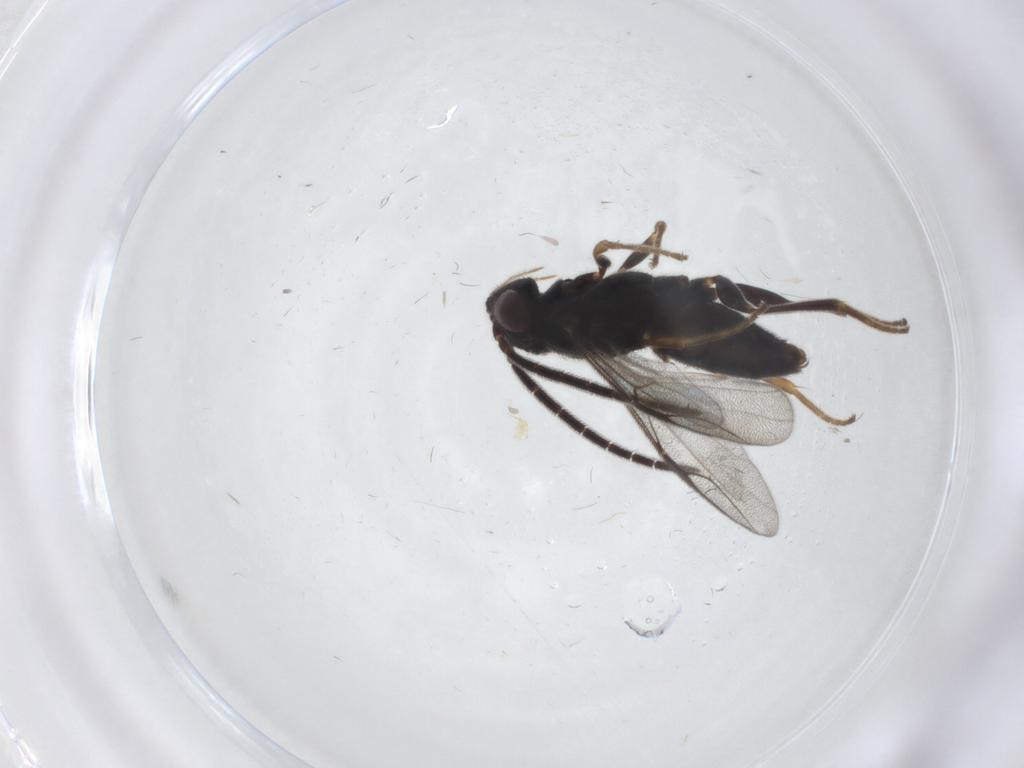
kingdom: Animalia
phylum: Arthropoda
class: Insecta
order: Hymenoptera
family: Dryinidae
